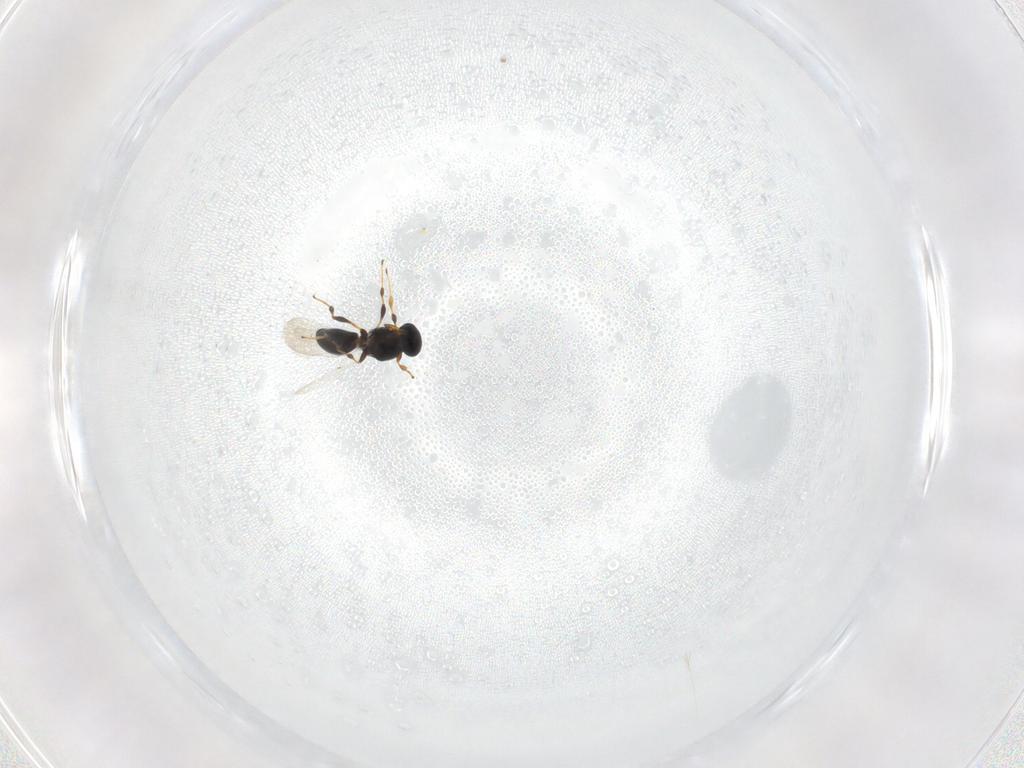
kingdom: Animalia
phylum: Arthropoda
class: Insecta
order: Hymenoptera
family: Platygastridae
